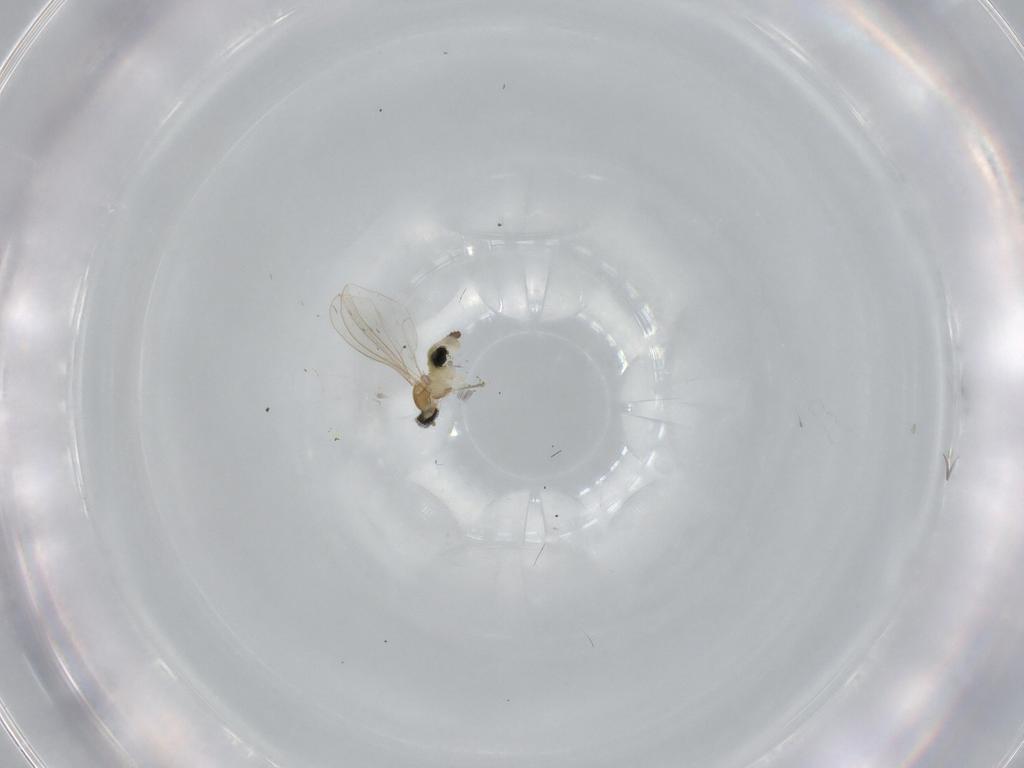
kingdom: Animalia
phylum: Arthropoda
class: Insecta
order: Diptera
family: Cecidomyiidae
